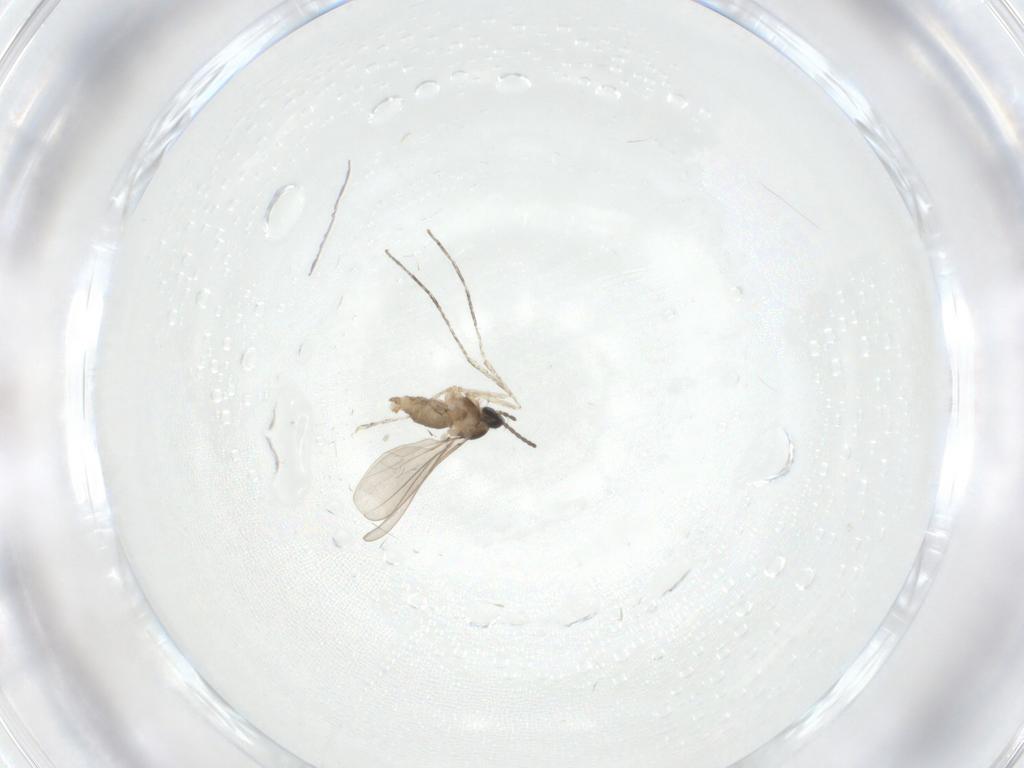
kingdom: Animalia
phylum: Arthropoda
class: Insecta
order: Diptera
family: Cecidomyiidae
